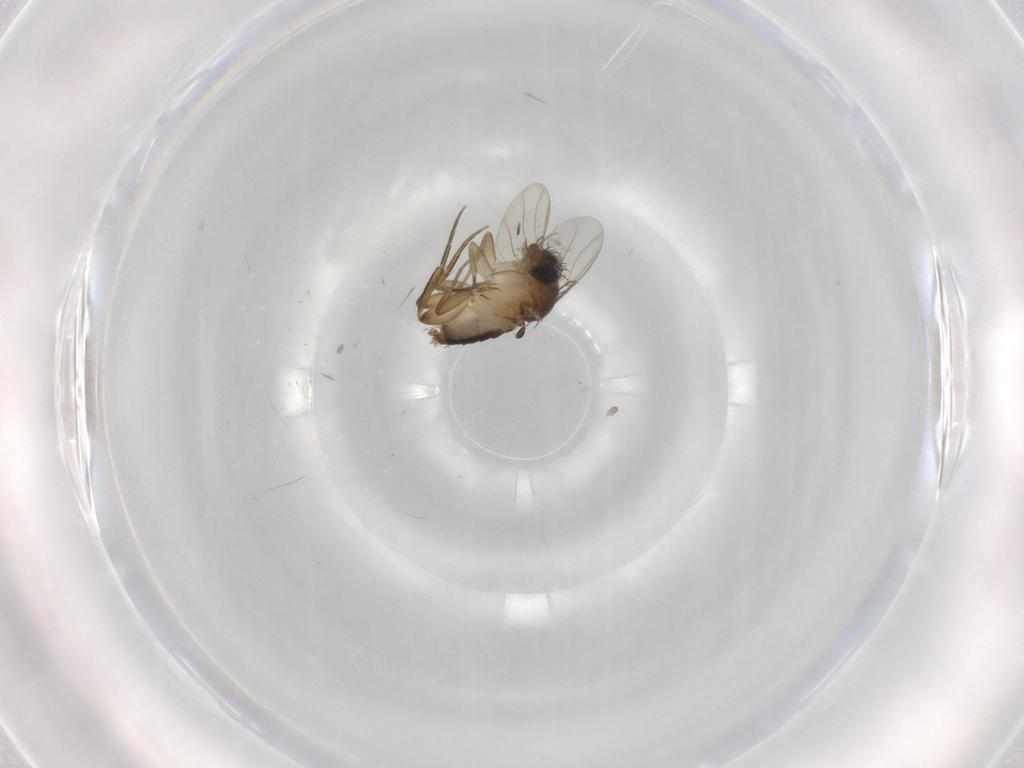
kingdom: Animalia
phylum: Arthropoda
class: Insecta
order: Diptera
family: Phoridae
